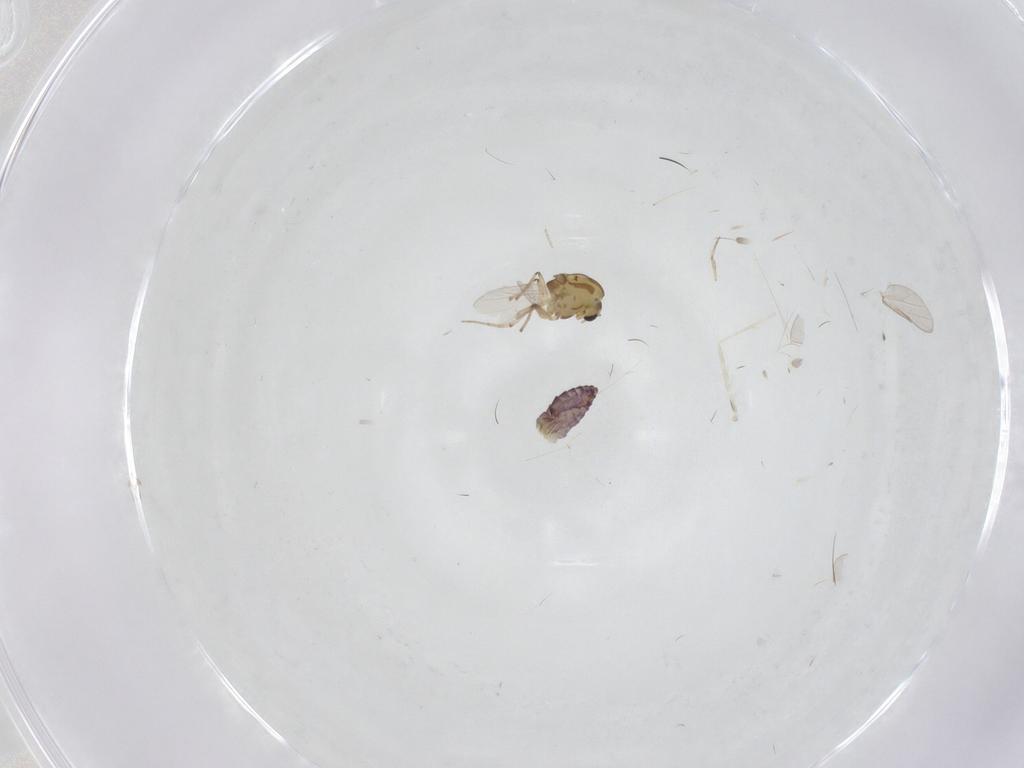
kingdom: Animalia
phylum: Arthropoda
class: Insecta
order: Diptera
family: Chironomidae
